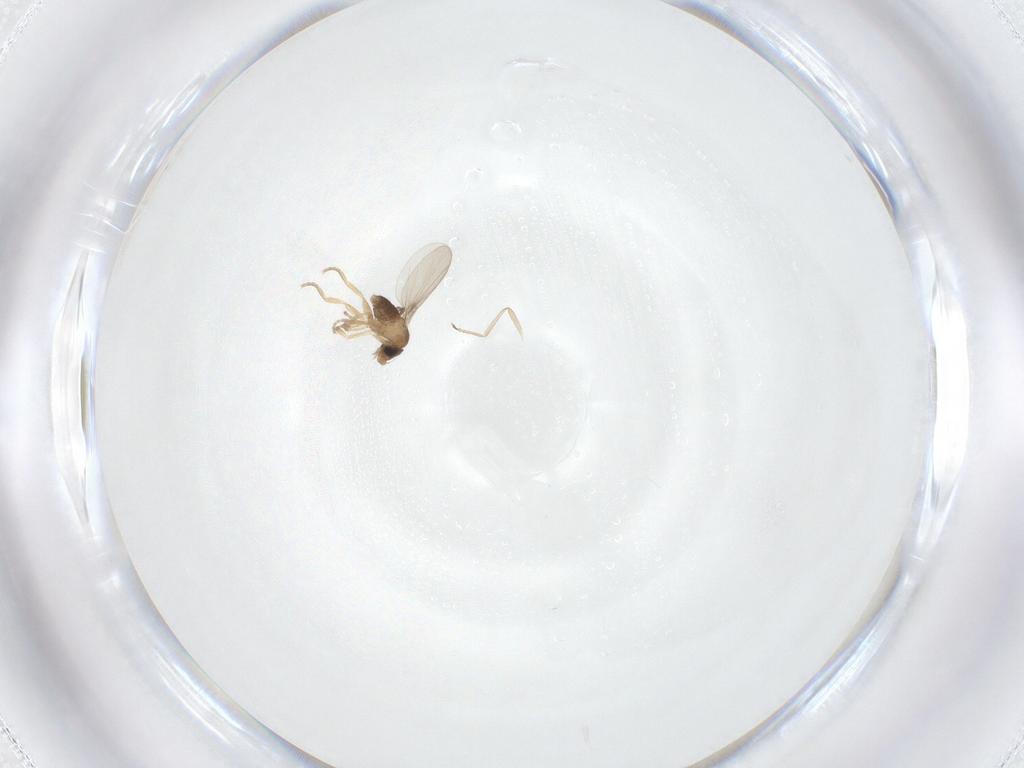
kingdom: Animalia
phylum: Arthropoda
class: Insecta
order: Diptera
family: Phoridae
